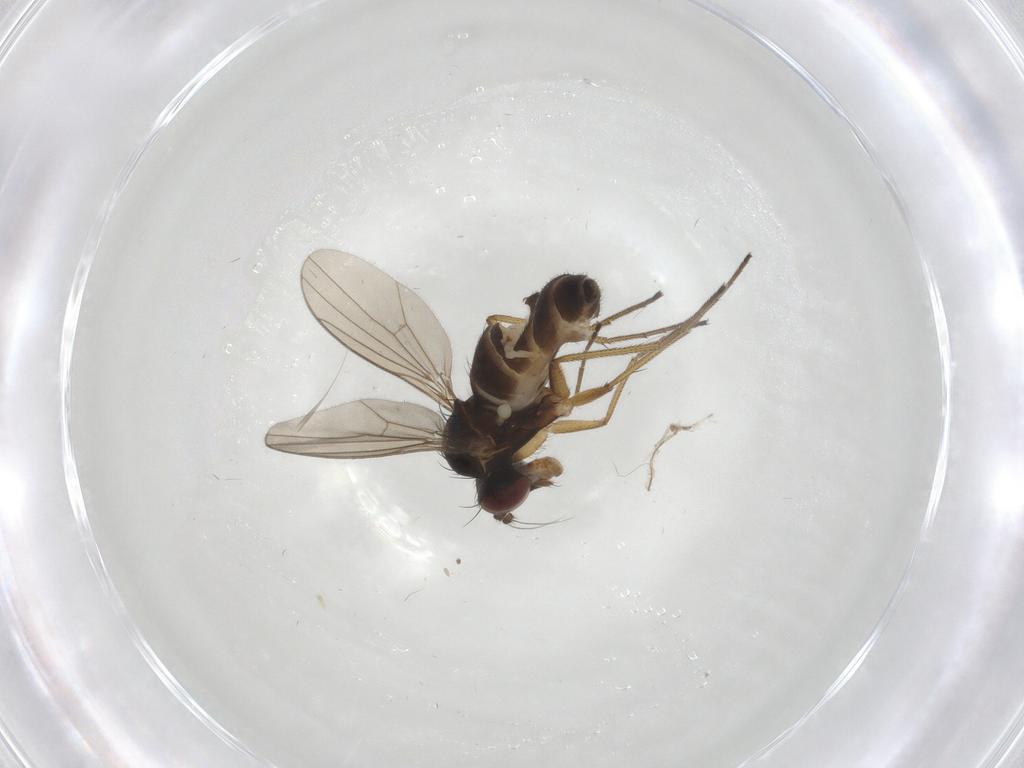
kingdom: Animalia
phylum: Arthropoda
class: Insecta
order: Diptera
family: Dolichopodidae
